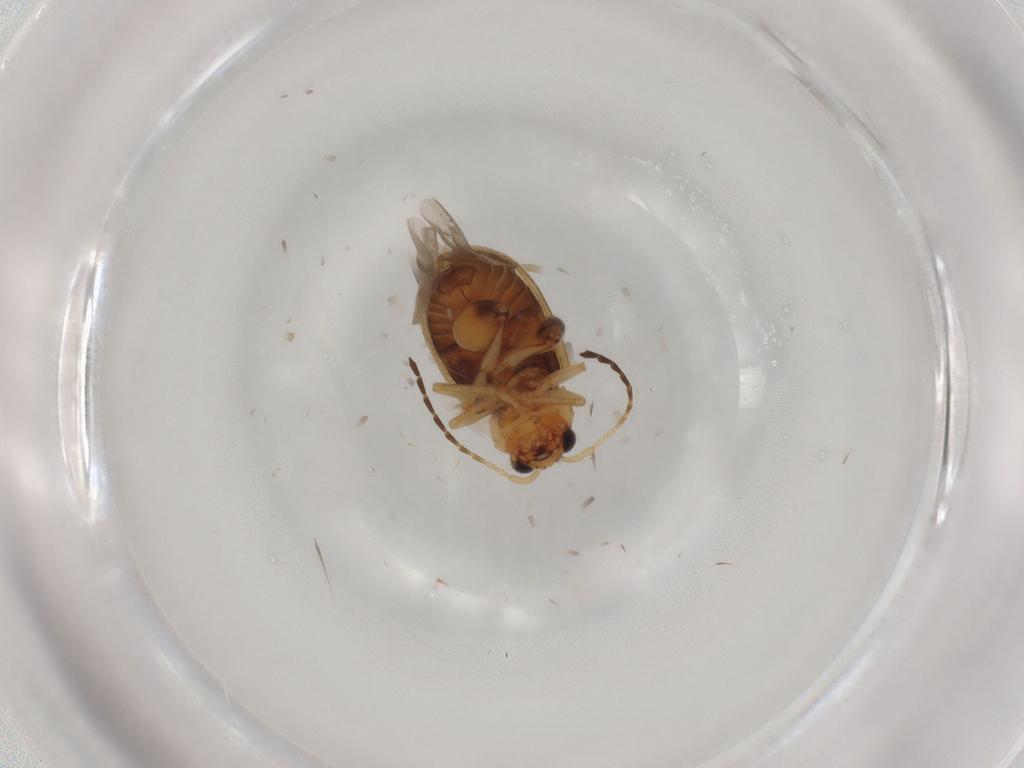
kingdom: Animalia
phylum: Arthropoda
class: Insecta
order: Coleoptera
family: Chrysomelidae
